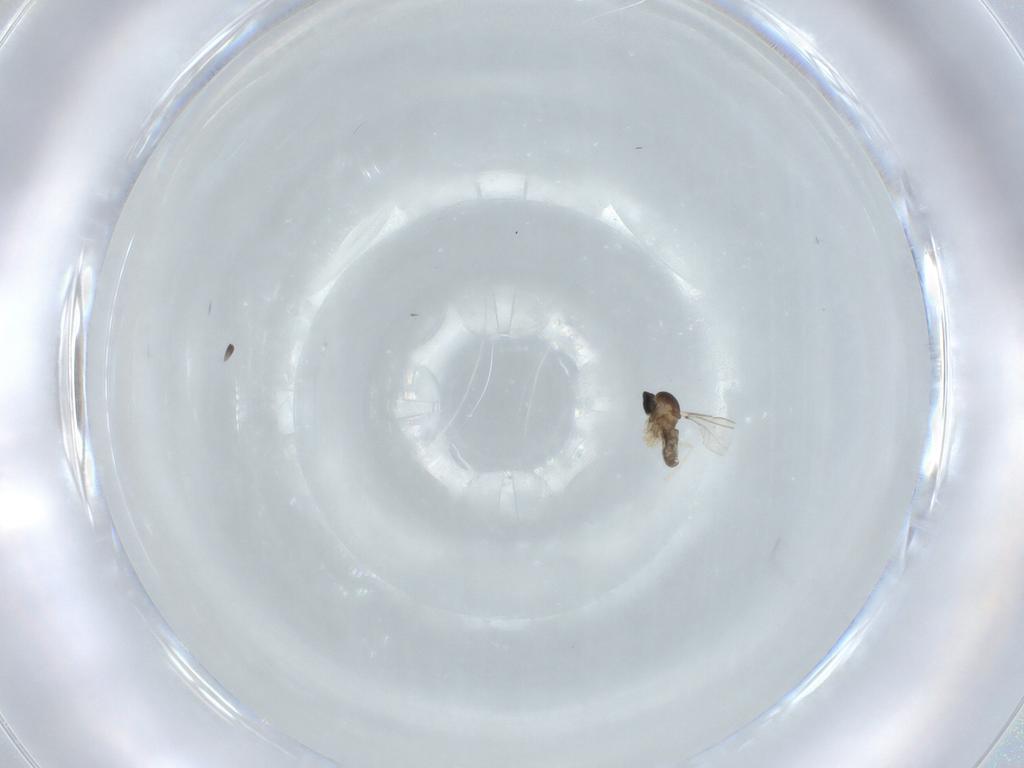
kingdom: Animalia
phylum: Arthropoda
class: Insecta
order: Diptera
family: Cecidomyiidae
